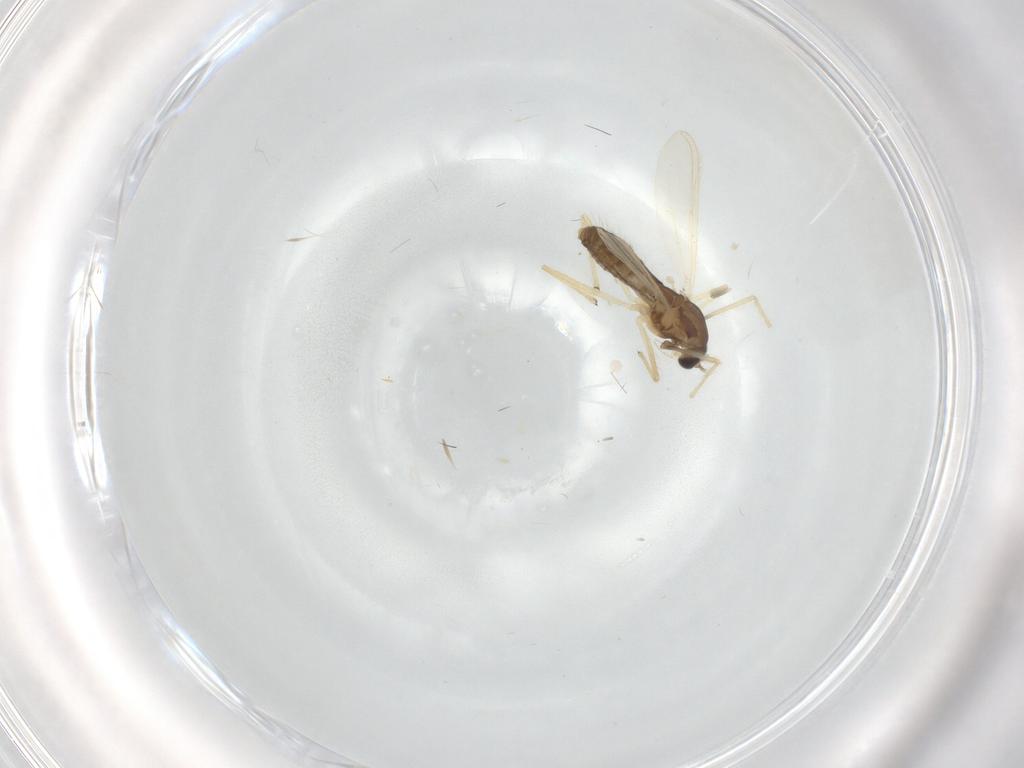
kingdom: Animalia
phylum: Arthropoda
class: Insecta
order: Diptera
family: Chironomidae
